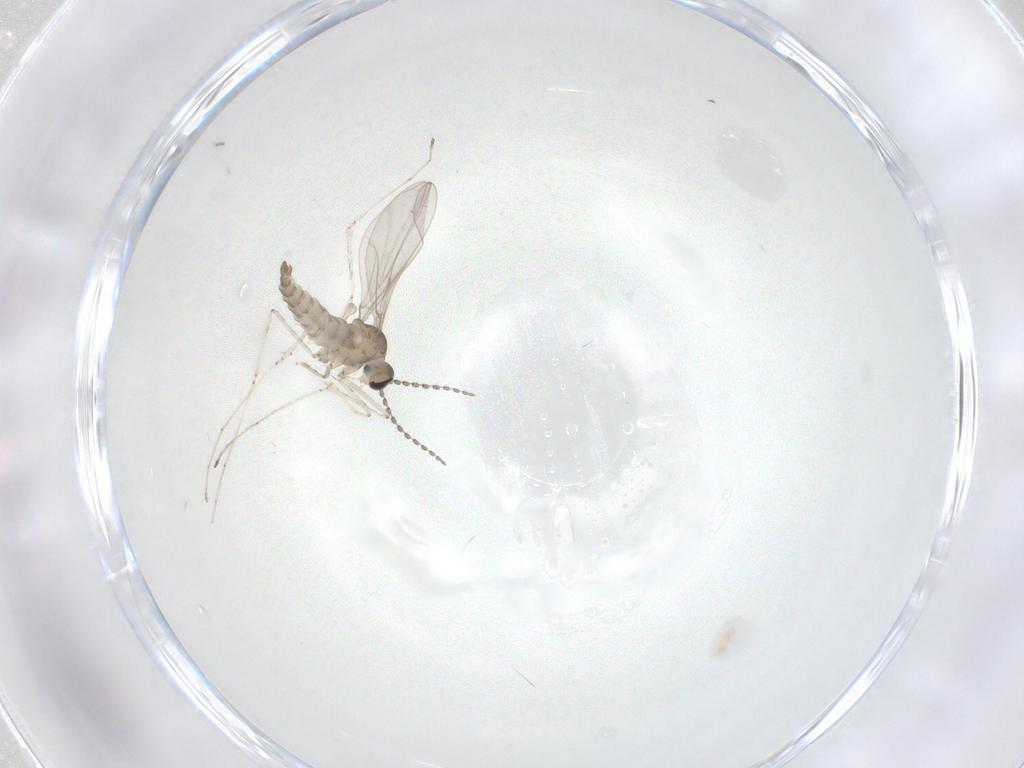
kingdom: Animalia
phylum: Arthropoda
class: Insecta
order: Diptera
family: Cecidomyiidae
